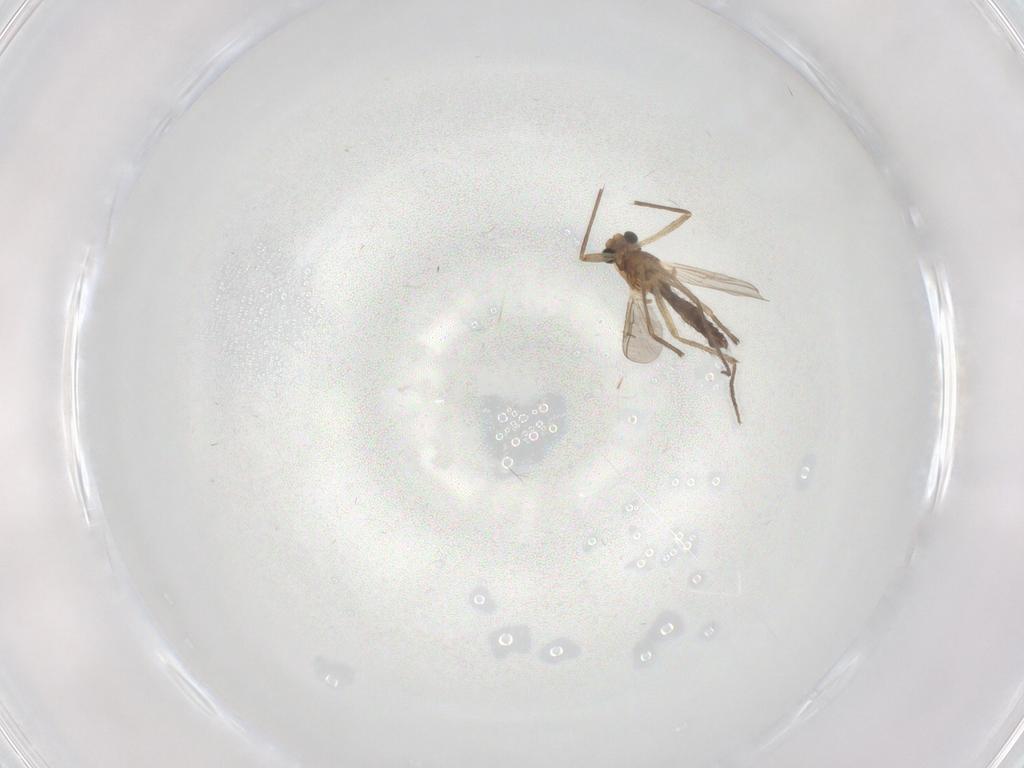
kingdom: Animalia
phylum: Arthropoda
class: Insecta
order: Diptera
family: Chironomidae
